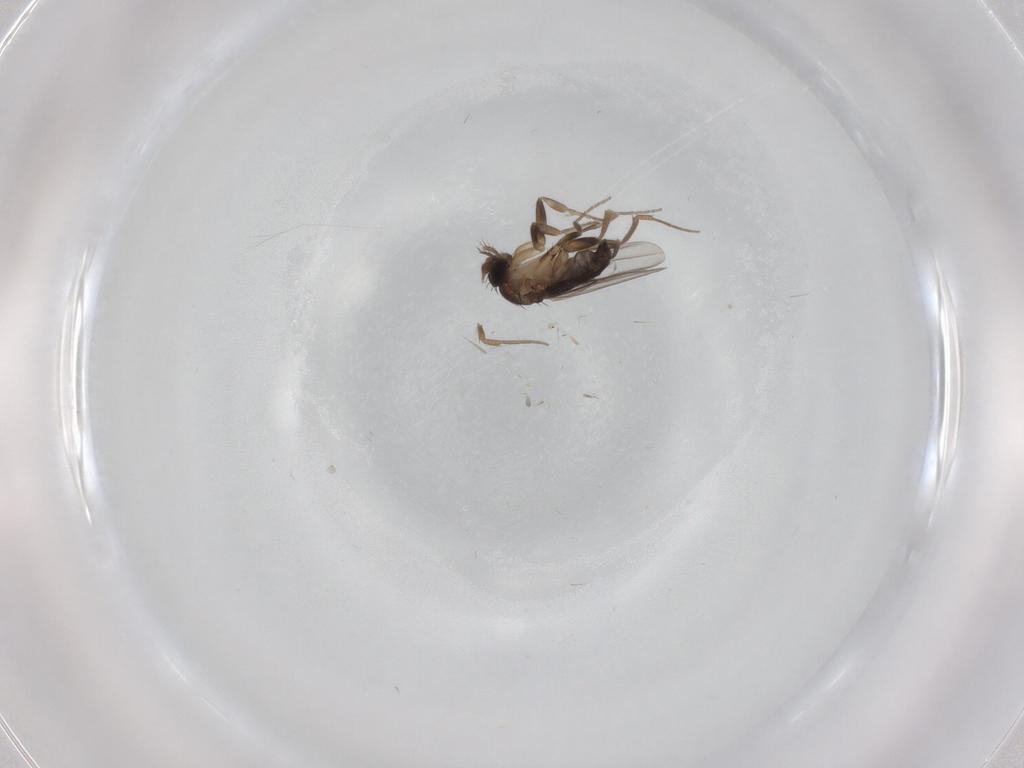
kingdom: Animalia
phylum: Arthropoda
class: Insecta
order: Diptera
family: Phoridae
